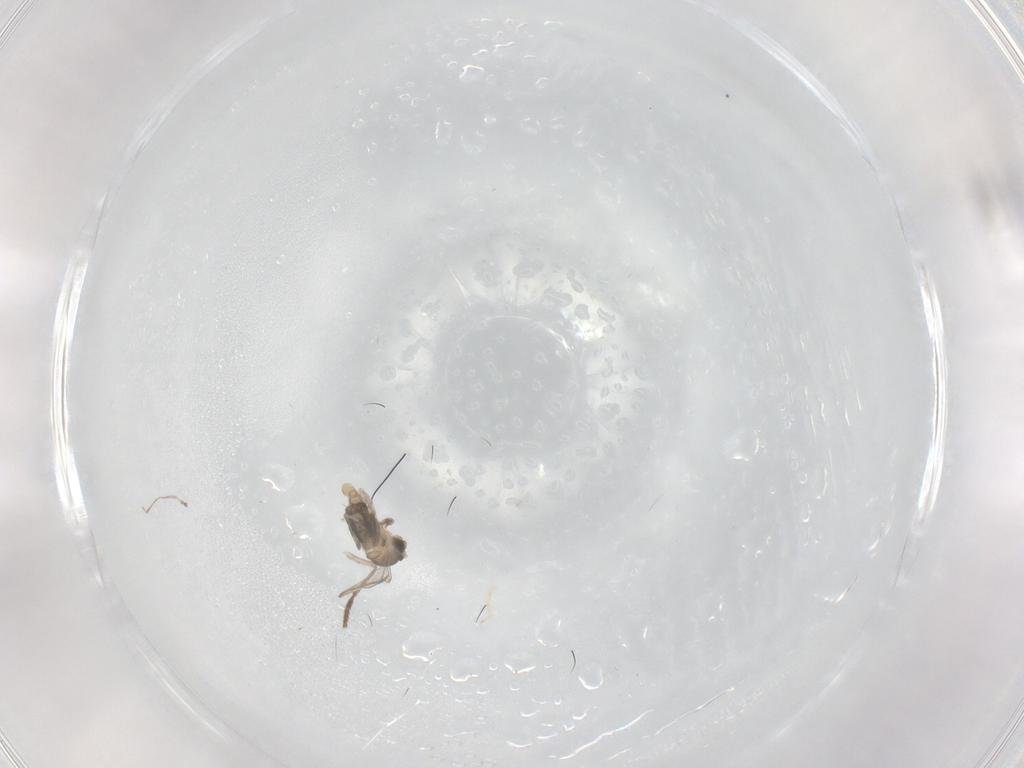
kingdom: Animalia
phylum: Arthropoda
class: Insecta
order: Diptera
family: Cecidomyiidae
